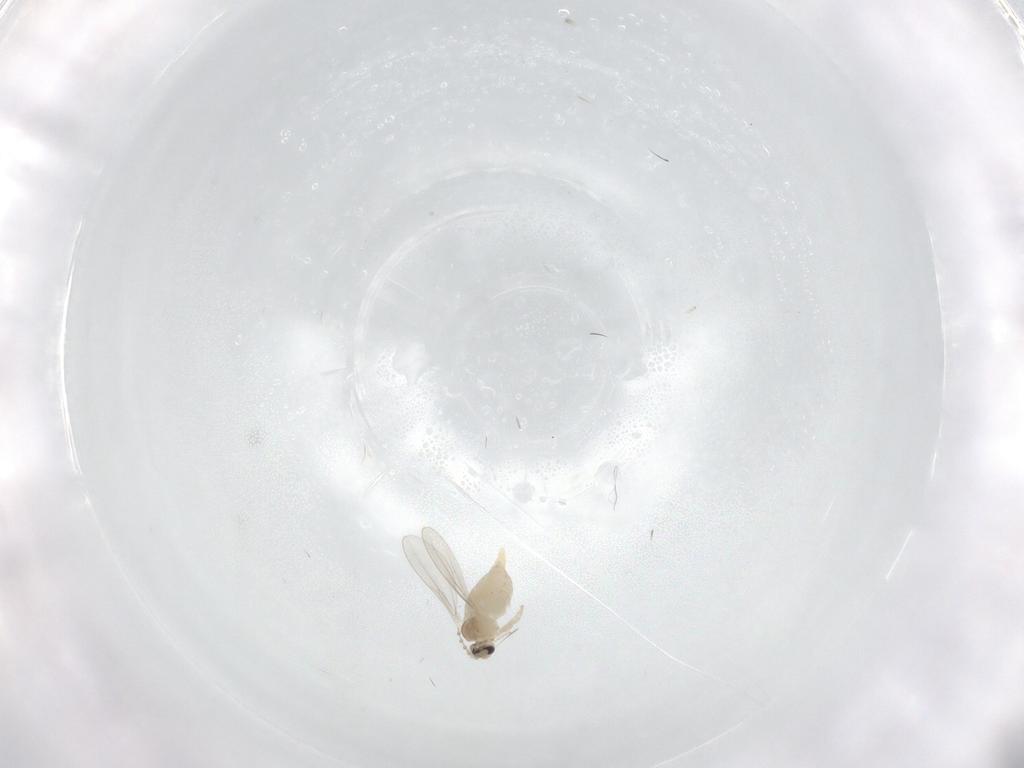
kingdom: Animalia
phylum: Arthropoda
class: Insecta
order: Diptera
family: Cecidomyiidae
